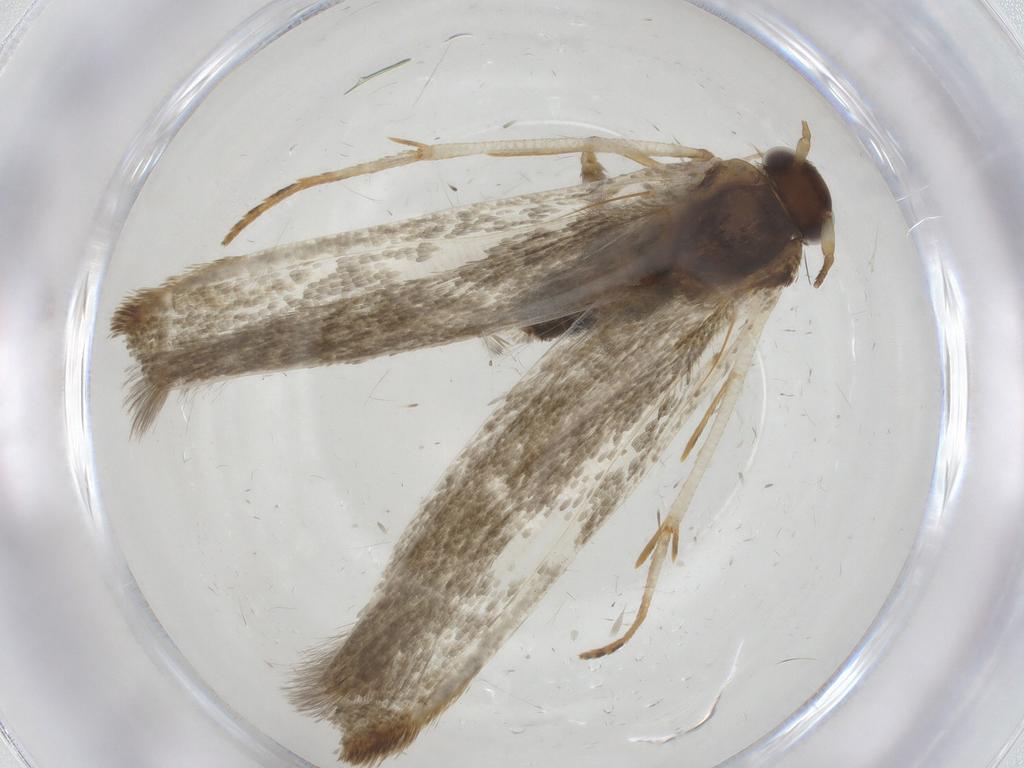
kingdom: Animalia
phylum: Arthropoda
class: Insecta
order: Lepidoptera
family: Blastobasidae
